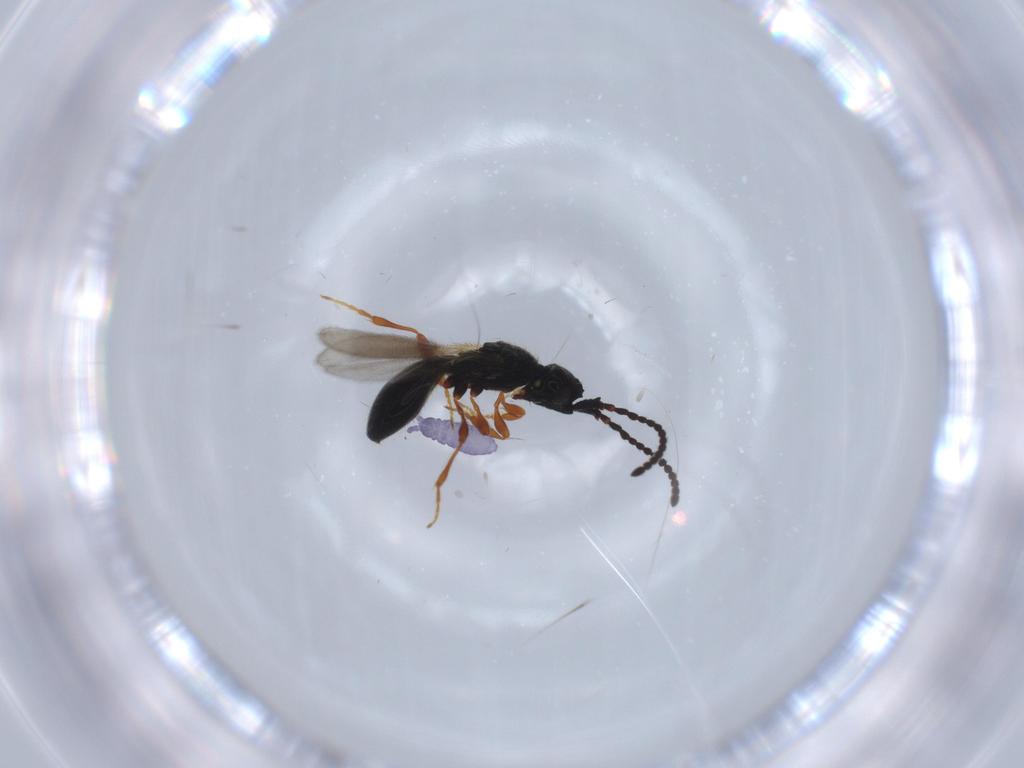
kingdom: Animalia
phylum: Arthropoda
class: Insecta
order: Hymenoptera
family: Diapriidae
